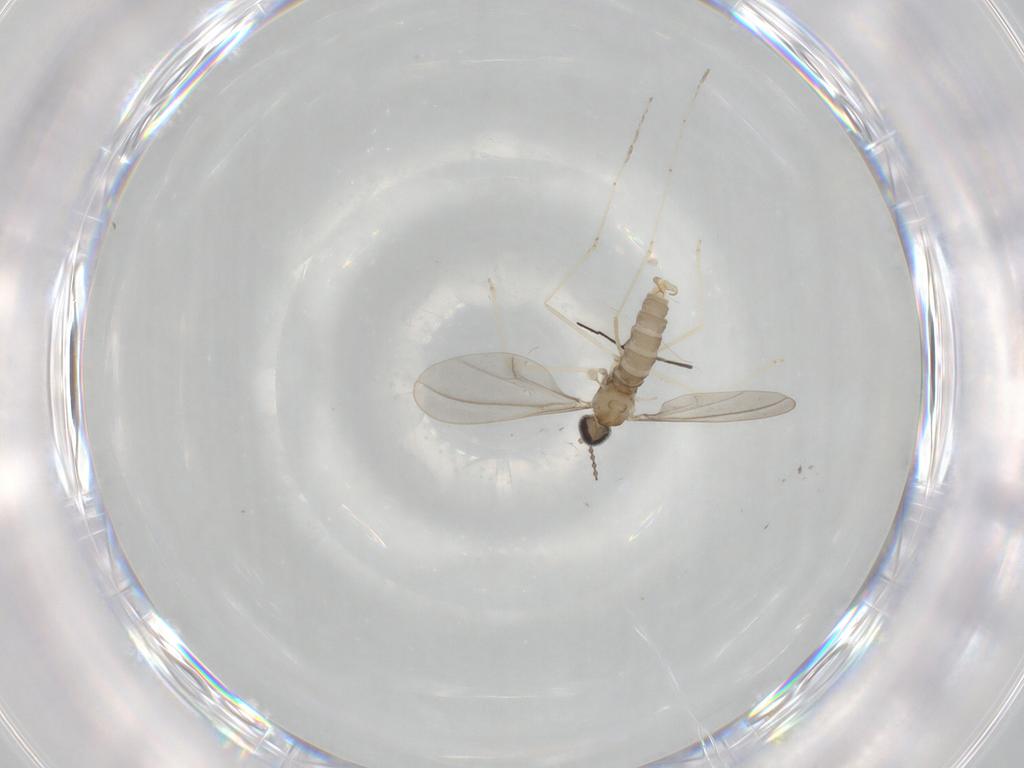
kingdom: Animalia
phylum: Arthropoda
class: Insecta
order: Diptera
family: Cecidomyiidae
